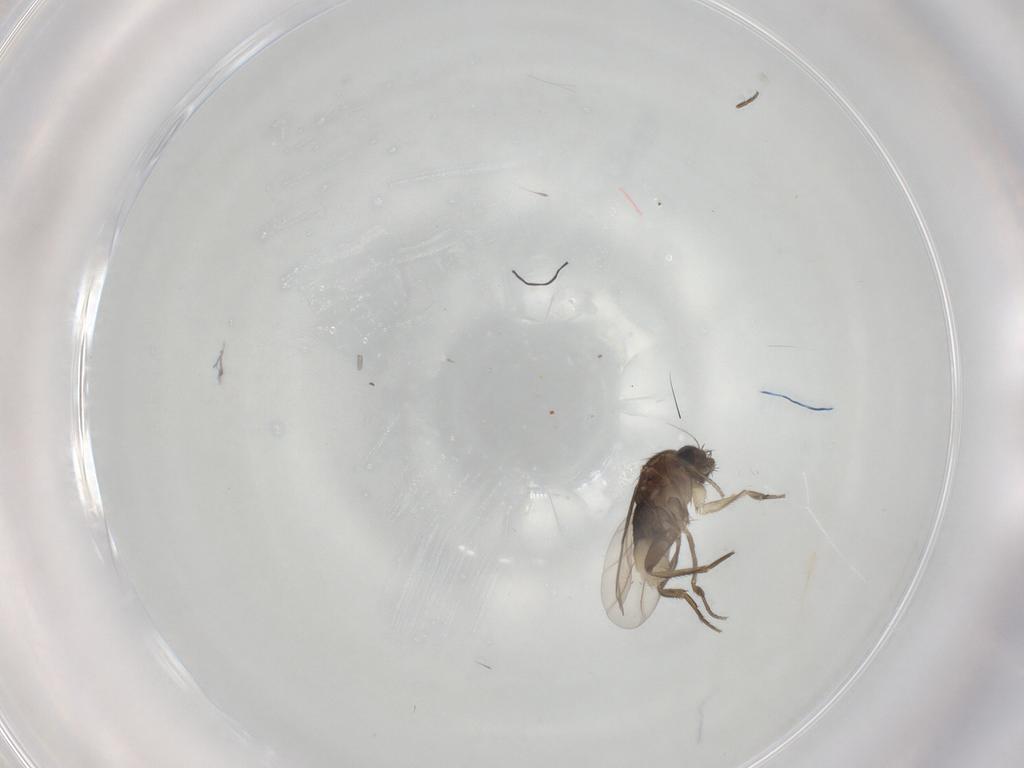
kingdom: Animalia
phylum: Arthropoda
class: Insecta
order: Diptera
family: Phoridae
